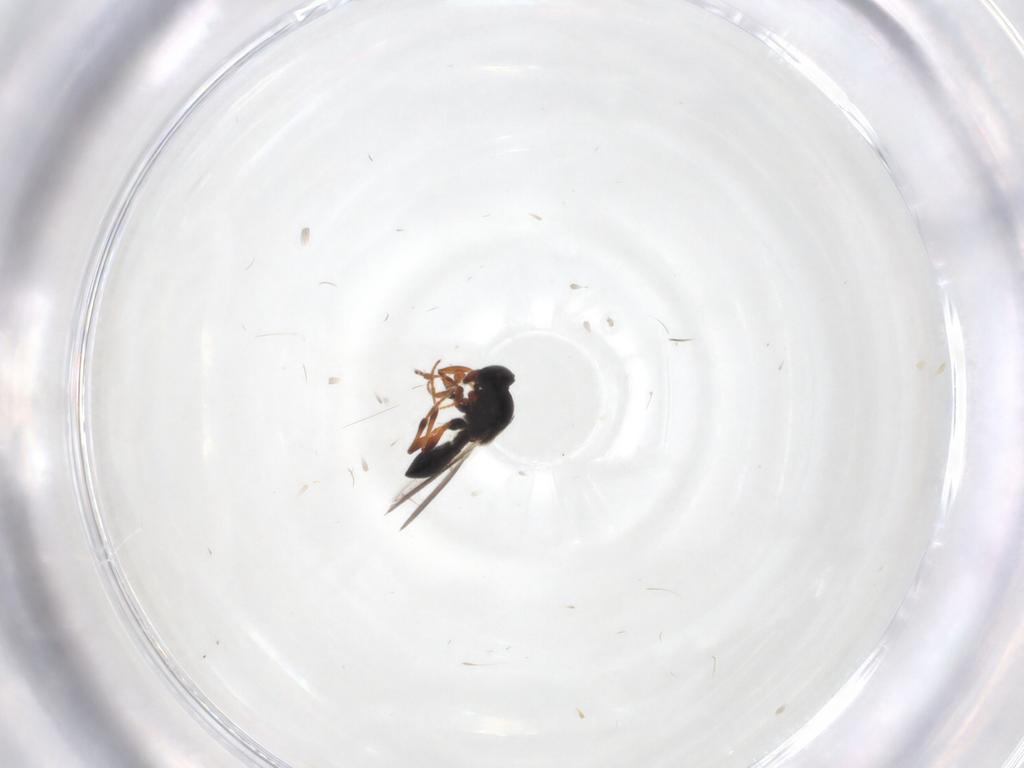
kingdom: Animalia
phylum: Arthropoda
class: Insecta
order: Hymenoptera
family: Platygastridae
